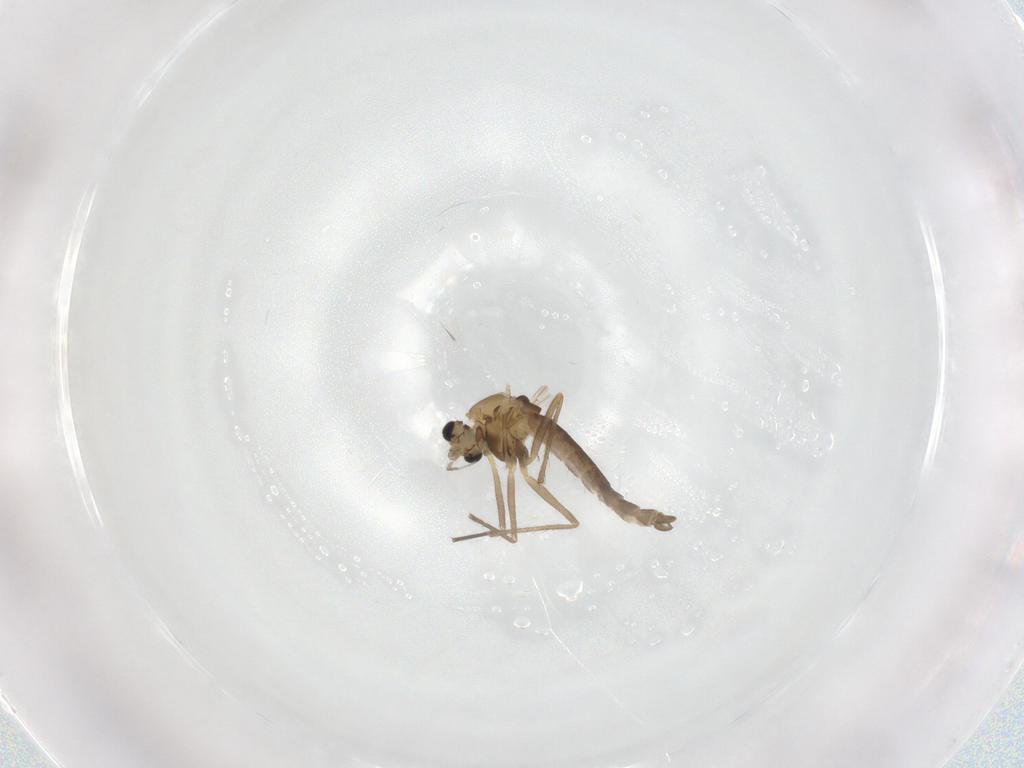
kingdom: Animalia
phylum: Arthropoda
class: Insecta
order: Diptera
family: Chironomidae
